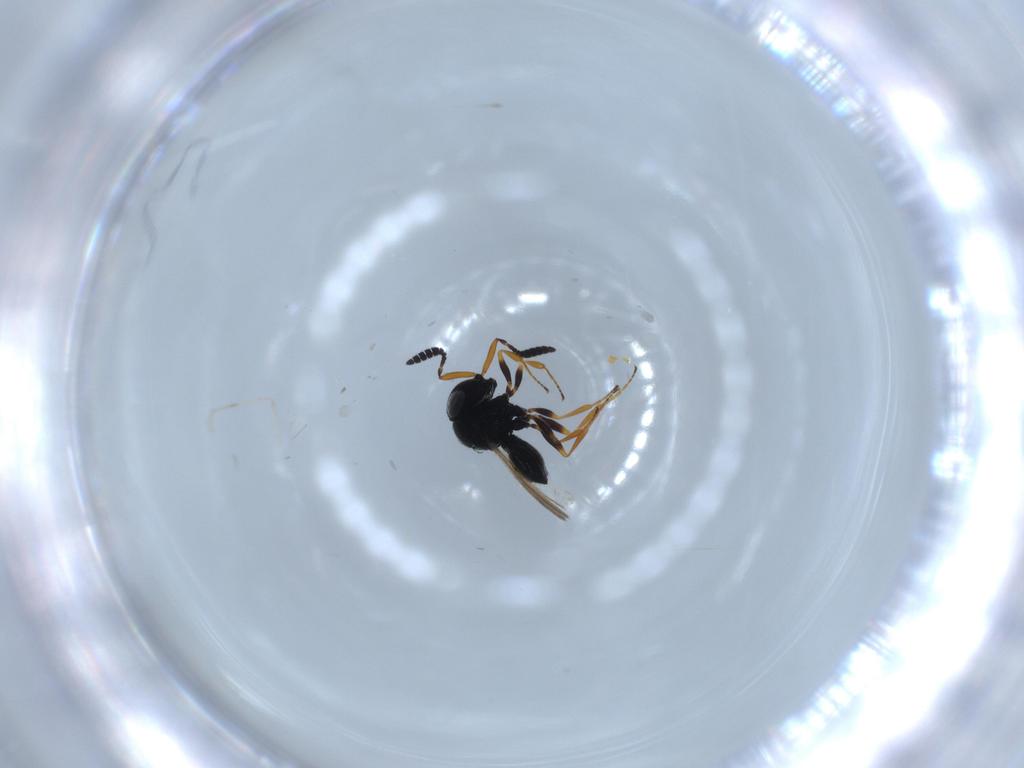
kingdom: Animalia
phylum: Arthropoda
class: Insecta
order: Hymenoptera
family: Scelionidae
